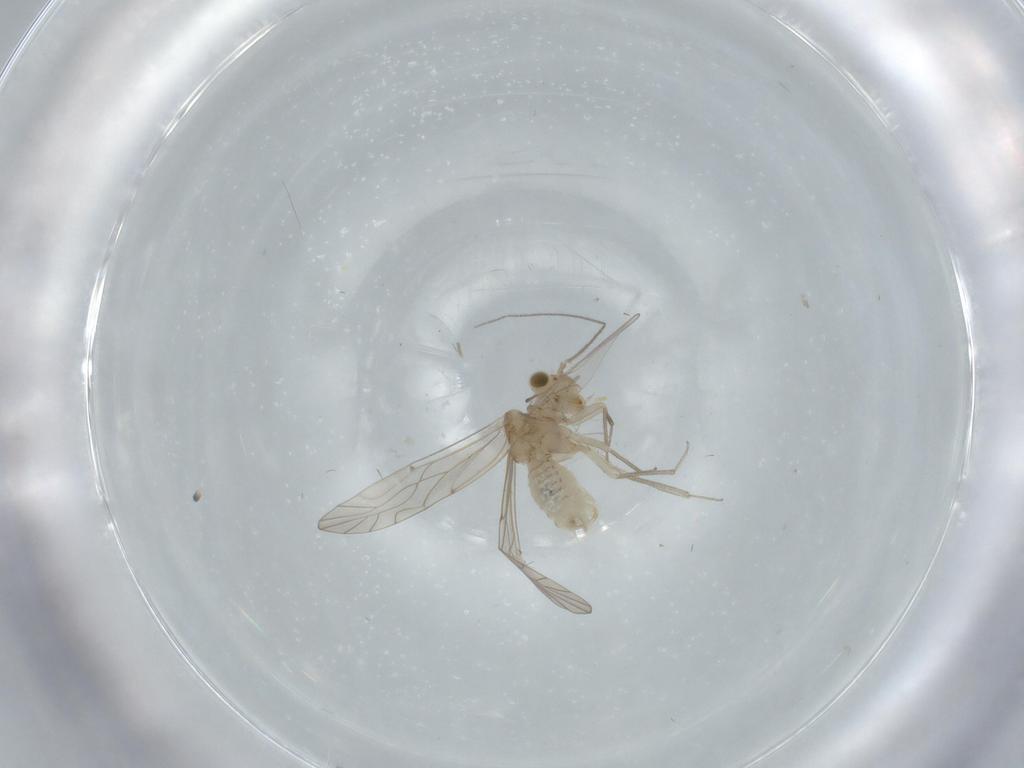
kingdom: Animalia
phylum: Arthropoda
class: Insecta
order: Psocodea
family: Lachesillidae
